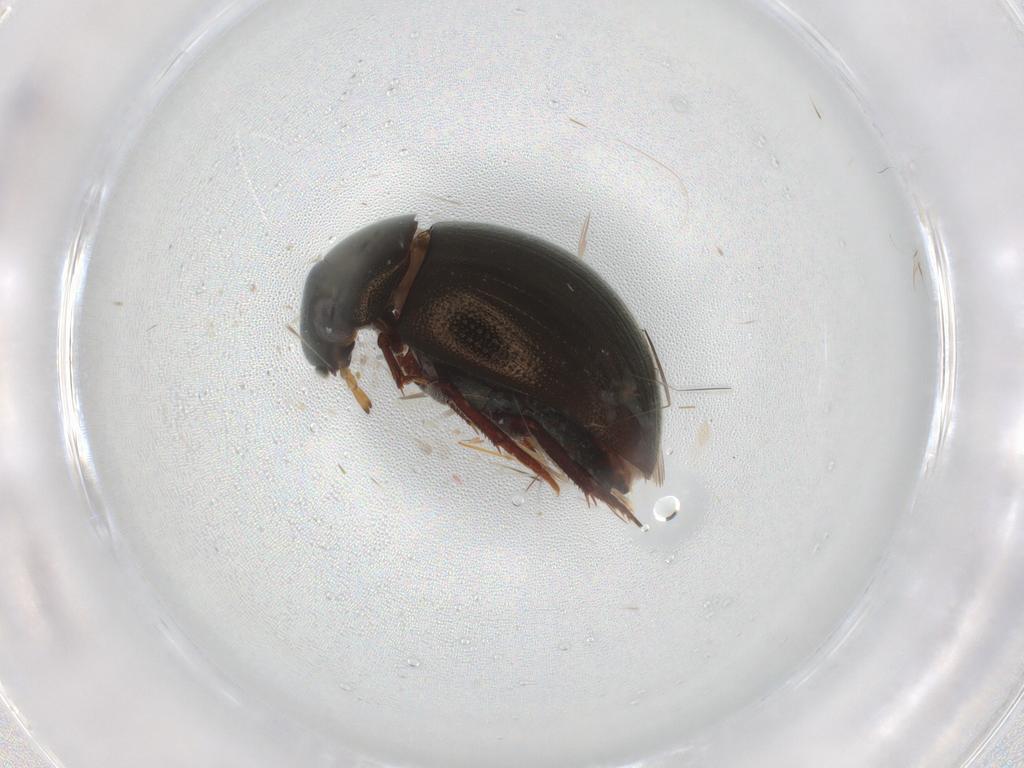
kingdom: Animalia
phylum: Arthropoda
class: Insecta
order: Coleoptera
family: Staphylinidae
